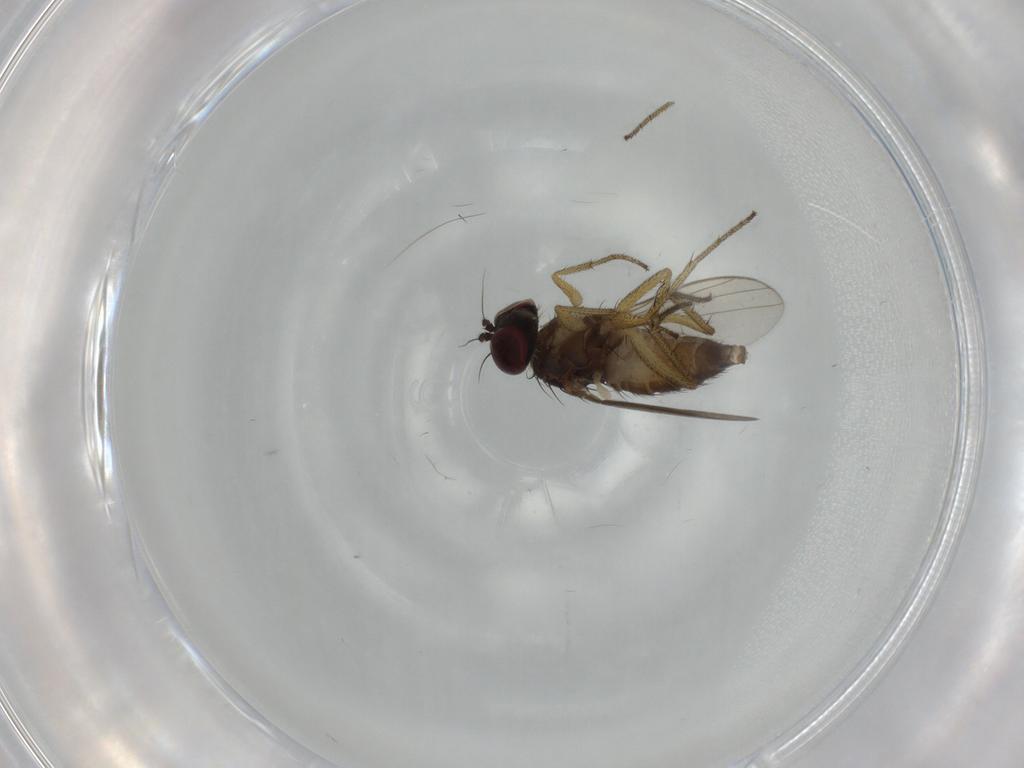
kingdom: Animalia
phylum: Arthropoda
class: Insecta
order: Diptera
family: Dolichopodidae
